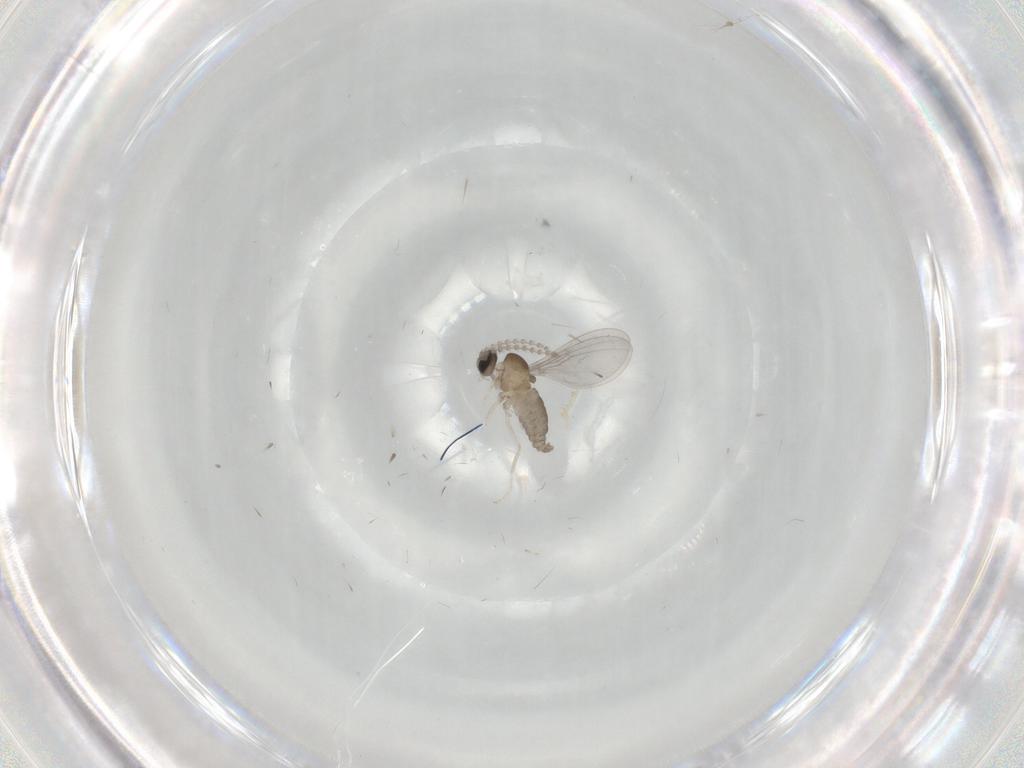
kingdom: Animalia
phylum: Arthropoda
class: Insecta
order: Diptera
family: Cecidomyiidae
